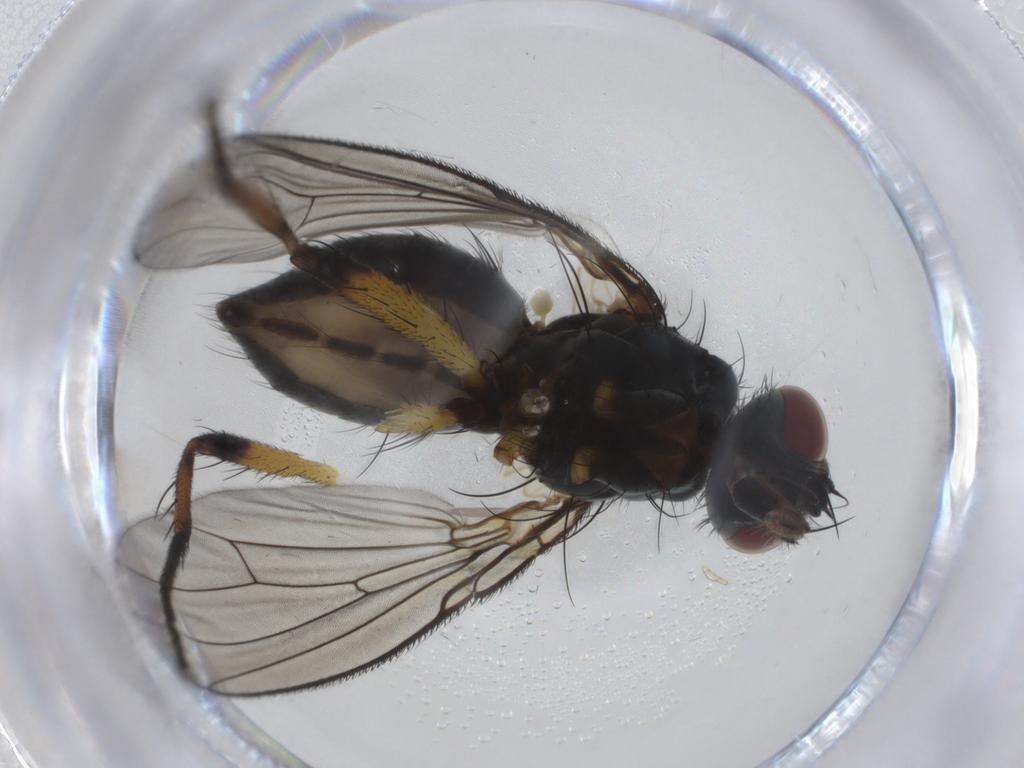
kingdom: Animalia
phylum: Arthropoda
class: Insecta
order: Diptera
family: Muscidae
